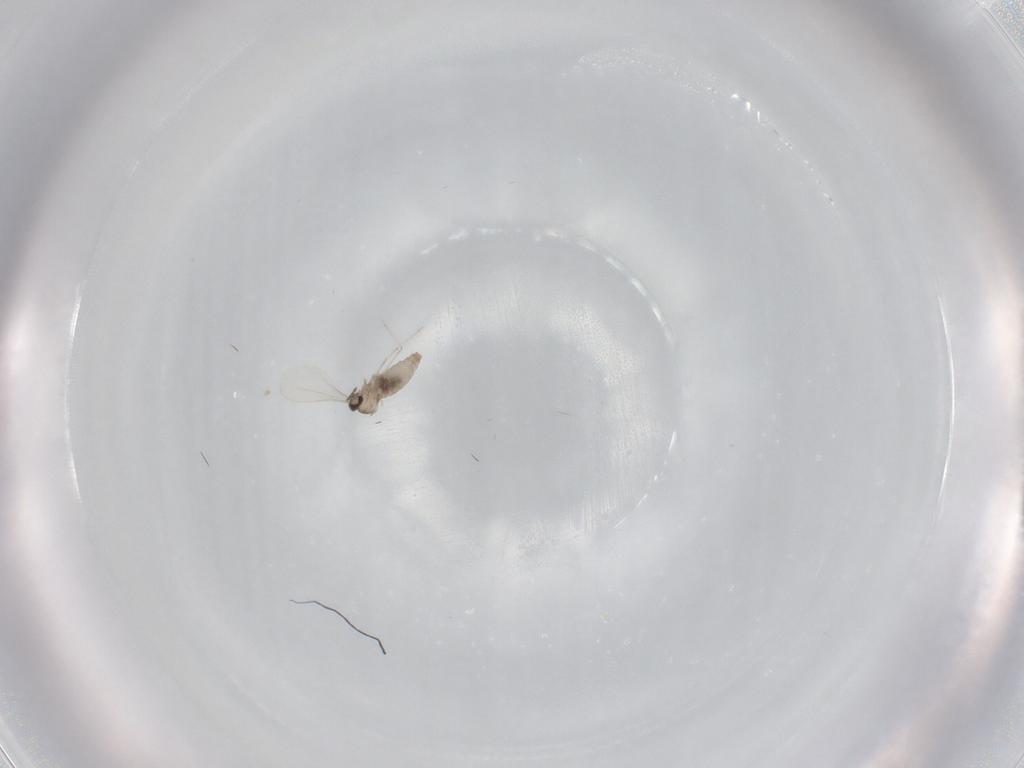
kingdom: Animalia
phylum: Arthropoda
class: Insecta
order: Diptera
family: Cecidomyiidae
